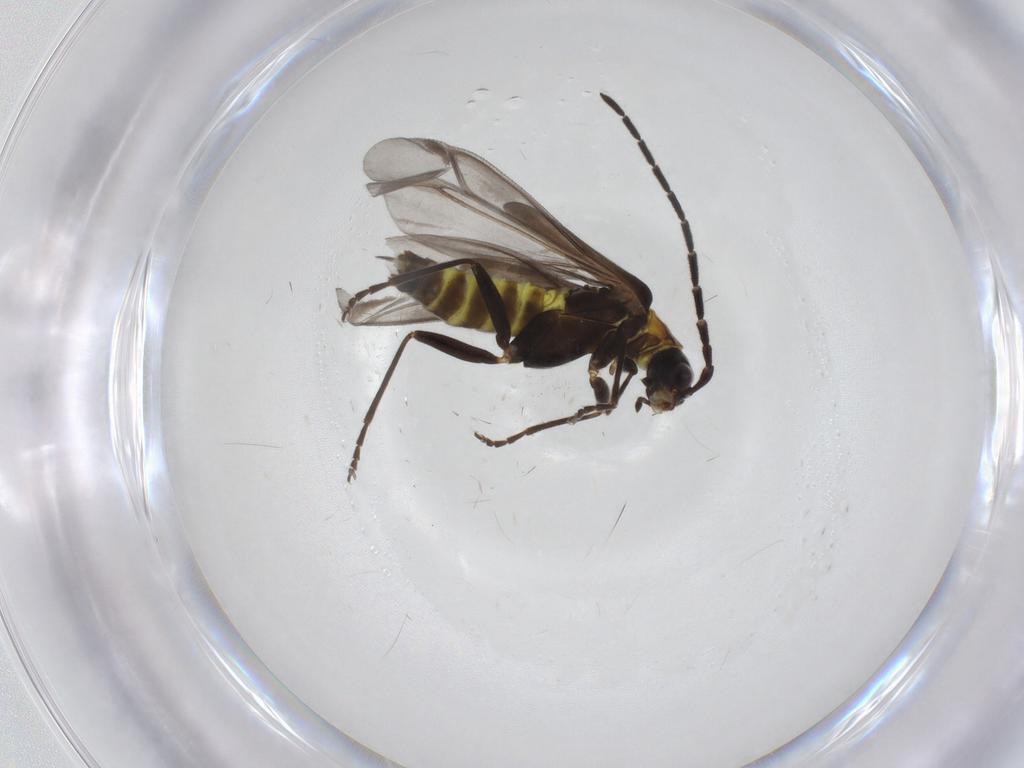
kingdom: Animalia
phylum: Arthropoda
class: Insecta
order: Coleoptera
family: Cantharidae
